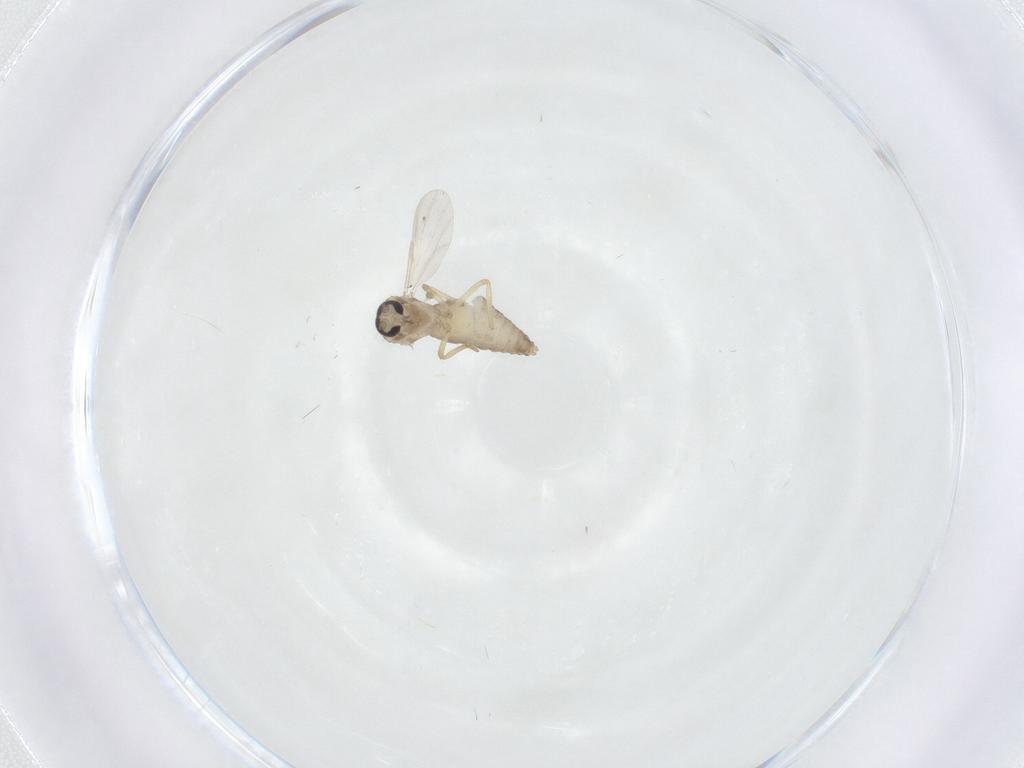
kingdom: Animalia
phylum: Arthropoda
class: Insecta
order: Diptera
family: Ceratopogonidae
